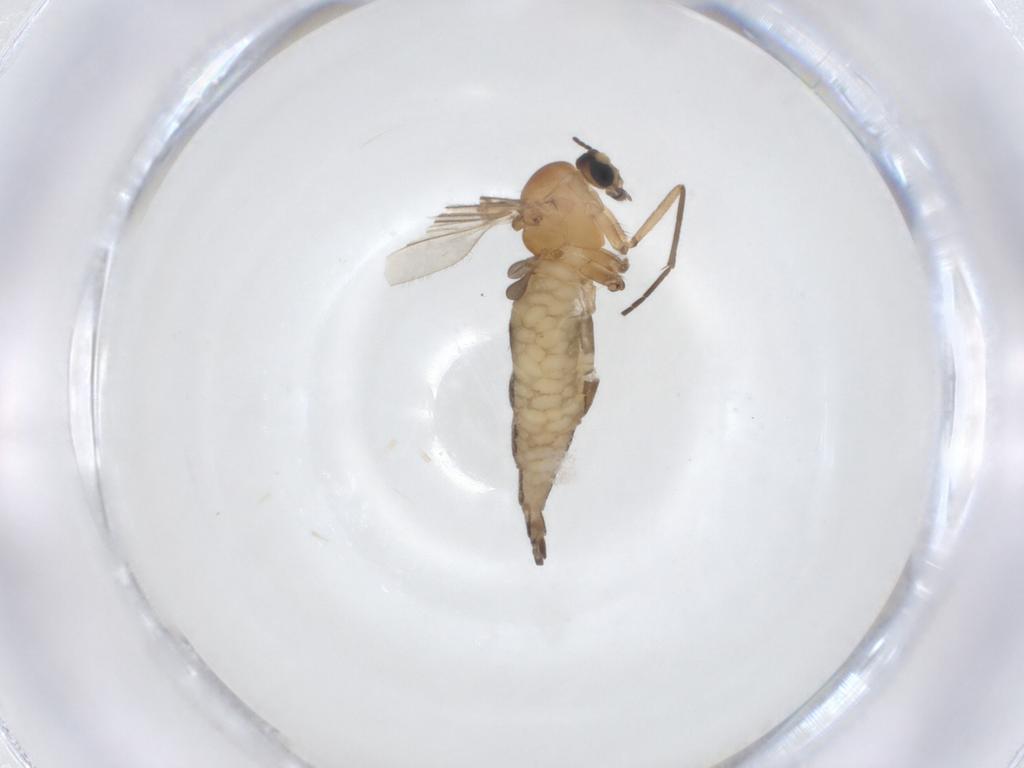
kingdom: Animalia
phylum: Arthropoda
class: Insecta
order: Diptera
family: Sciaridae
